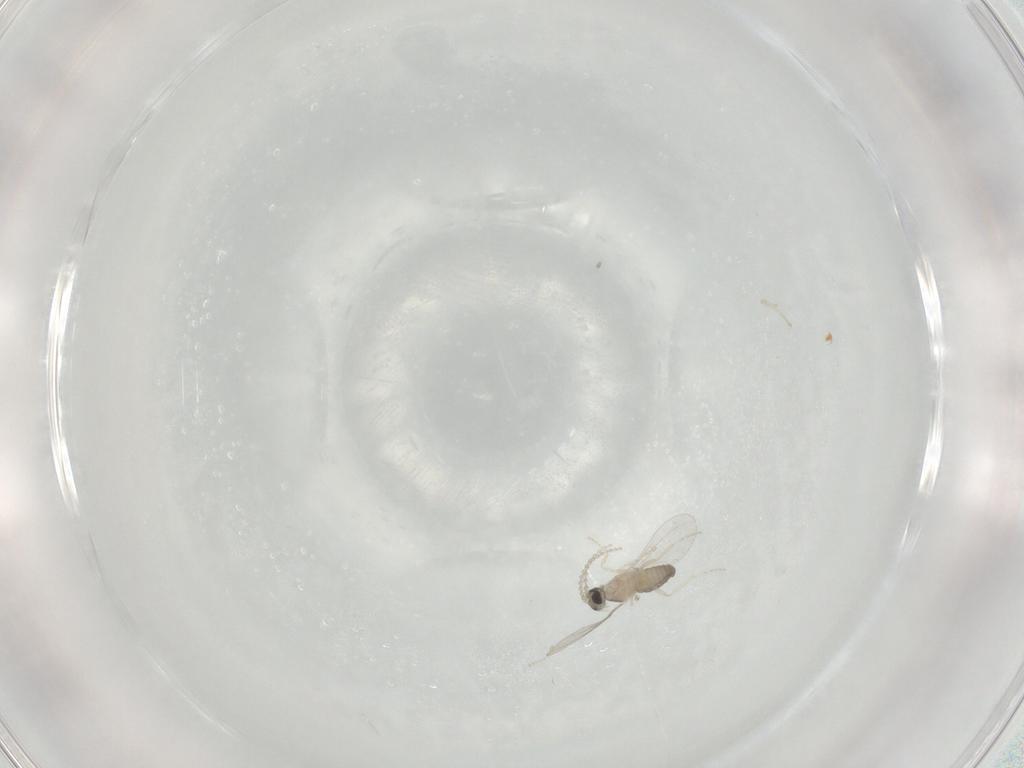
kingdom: Animalia
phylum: Arthropoda
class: Insecta
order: Diptera
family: Cecidomyiidae
